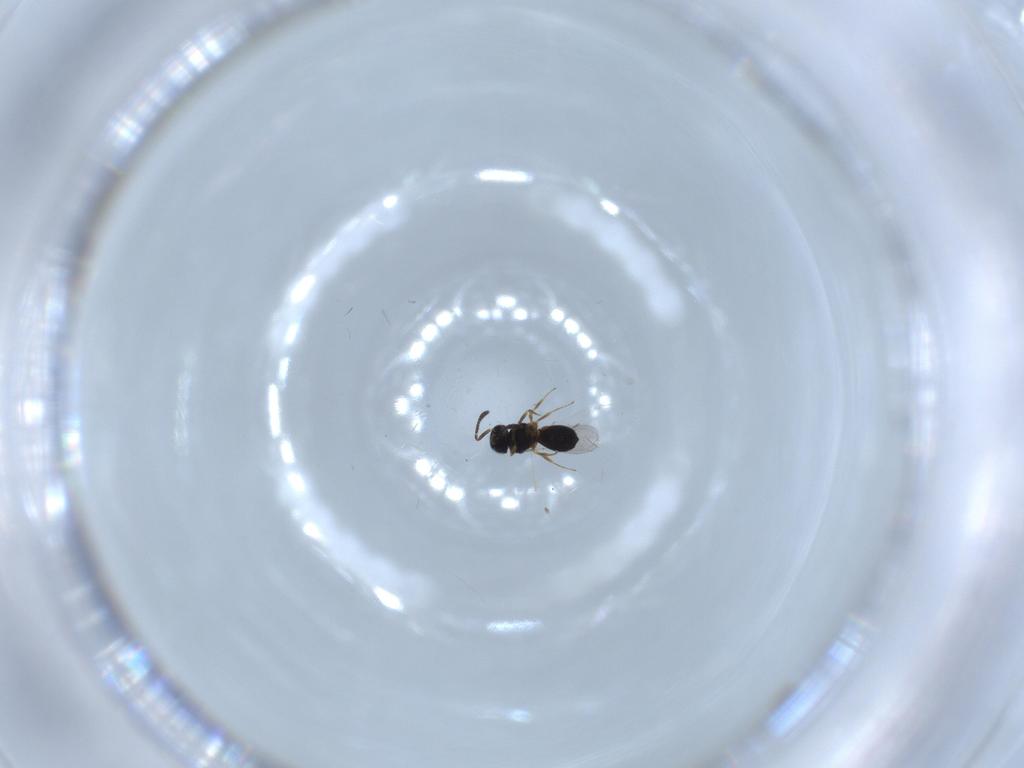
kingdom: Animalia
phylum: Arthropoda
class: Insecta
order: Hymenoptera
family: Scelionidae
